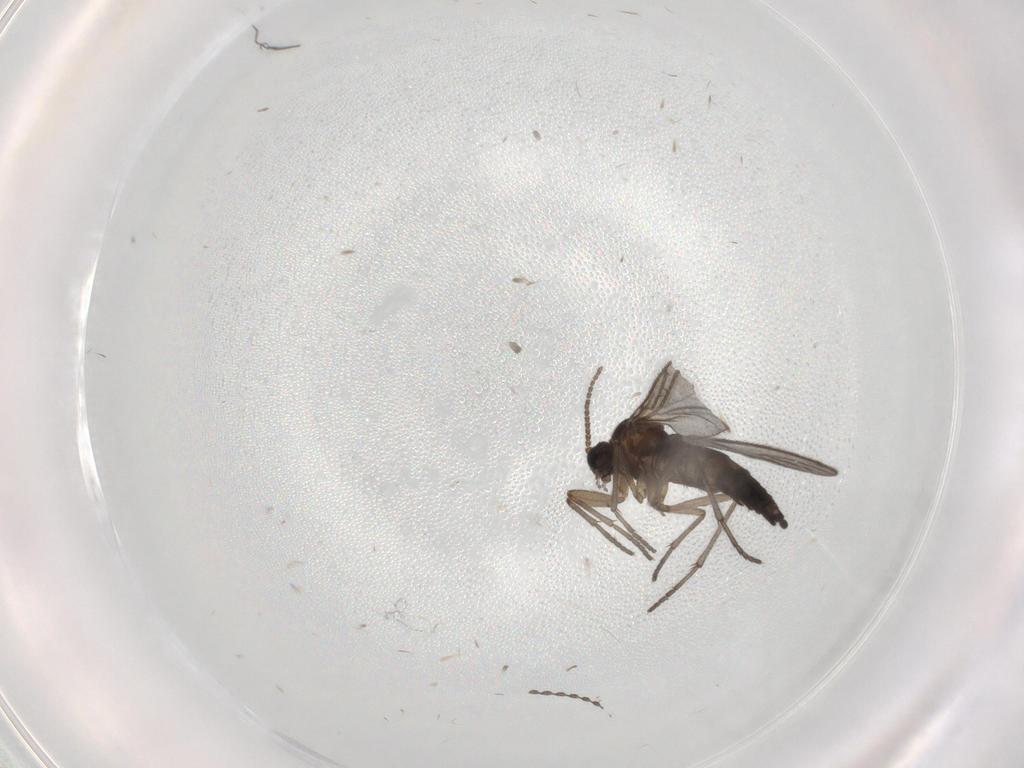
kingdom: Animalia
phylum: Arthropoda
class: Insecta
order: Diptera
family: Sciaridae
